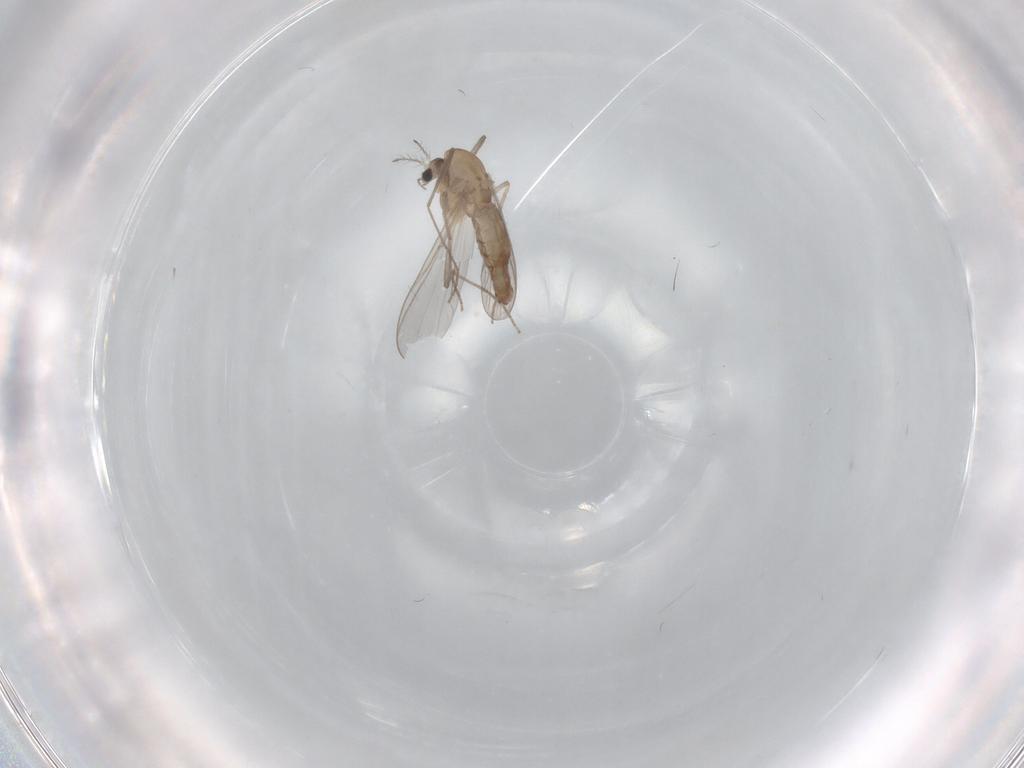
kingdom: Animalia
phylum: Arthropoda
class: Insecta
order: Diptera
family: Chironomidae
